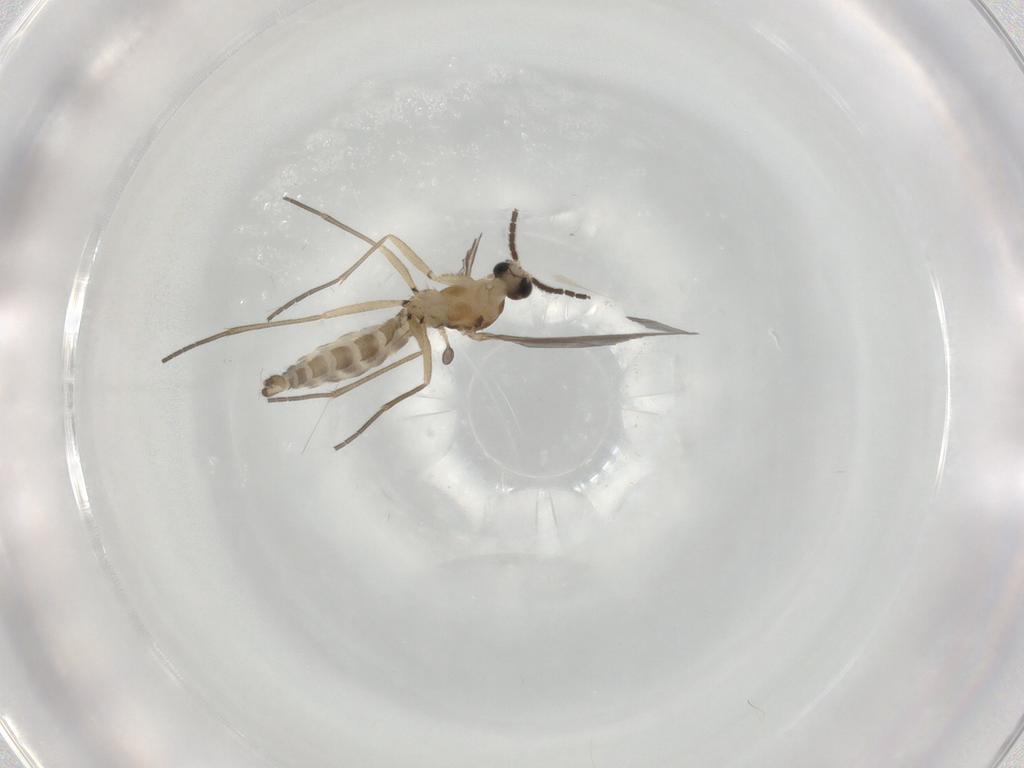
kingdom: Animalia
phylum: Arthropoda
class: Insecta
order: Diptera
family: Sciaridae
